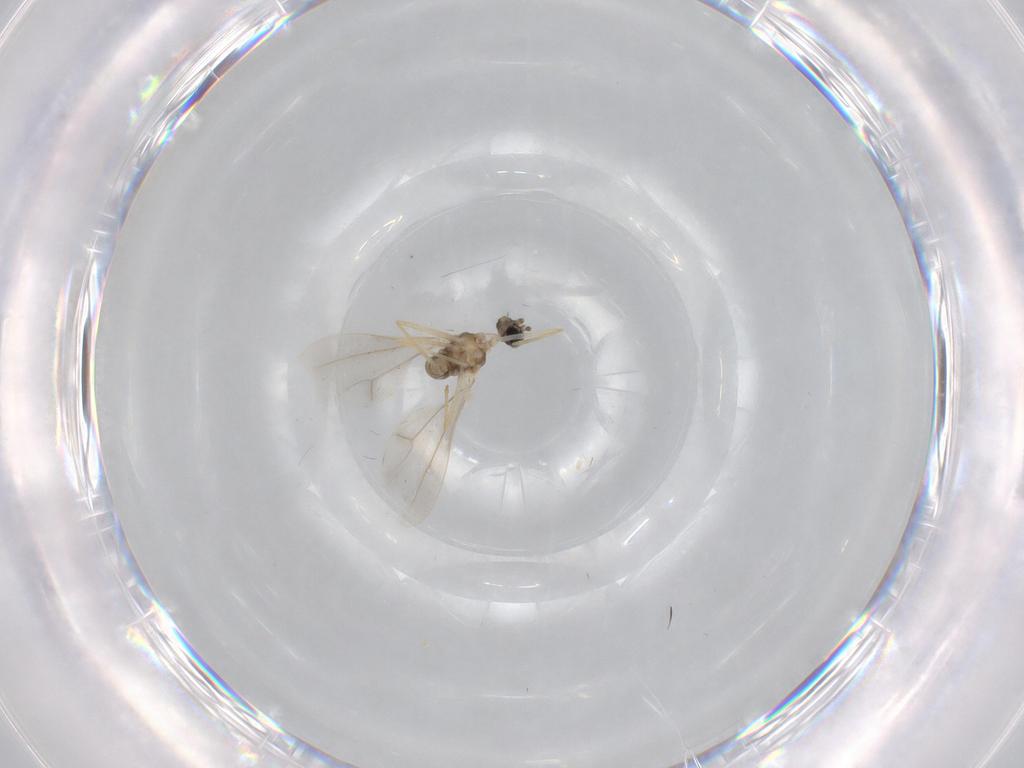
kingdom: Animalia
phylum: Arthropoda
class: Insecta
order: Diptera
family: Cecidomyiidae
